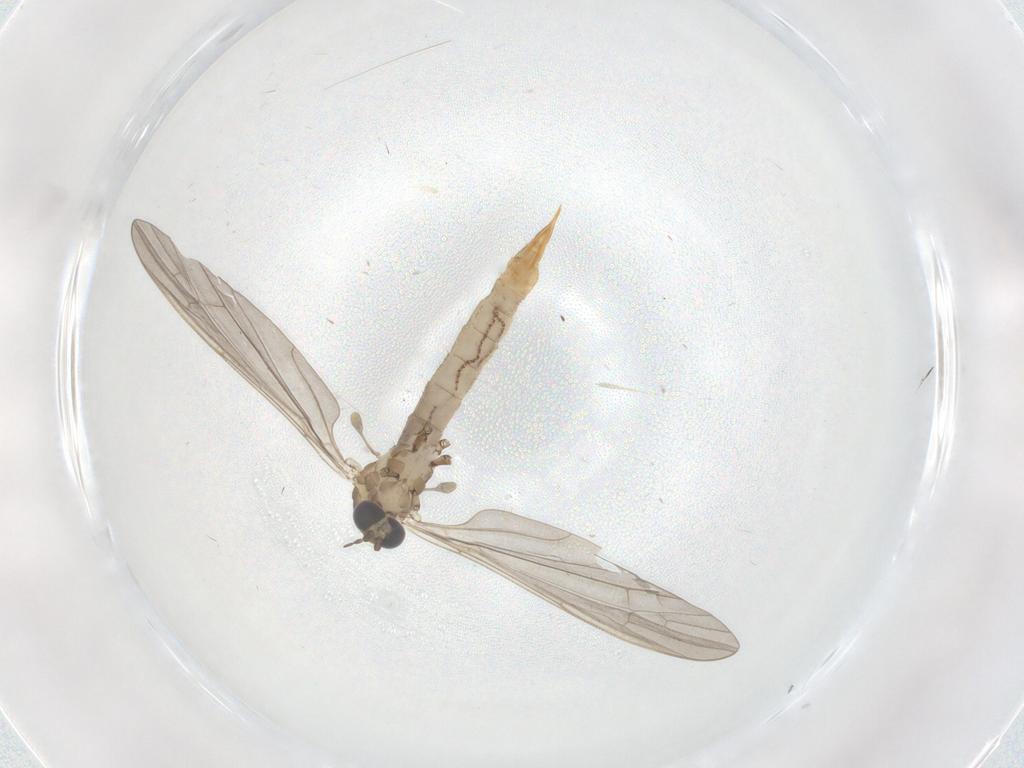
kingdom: Animalia
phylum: Arthropoda
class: Insecta
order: Diptera
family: Limoniidae
